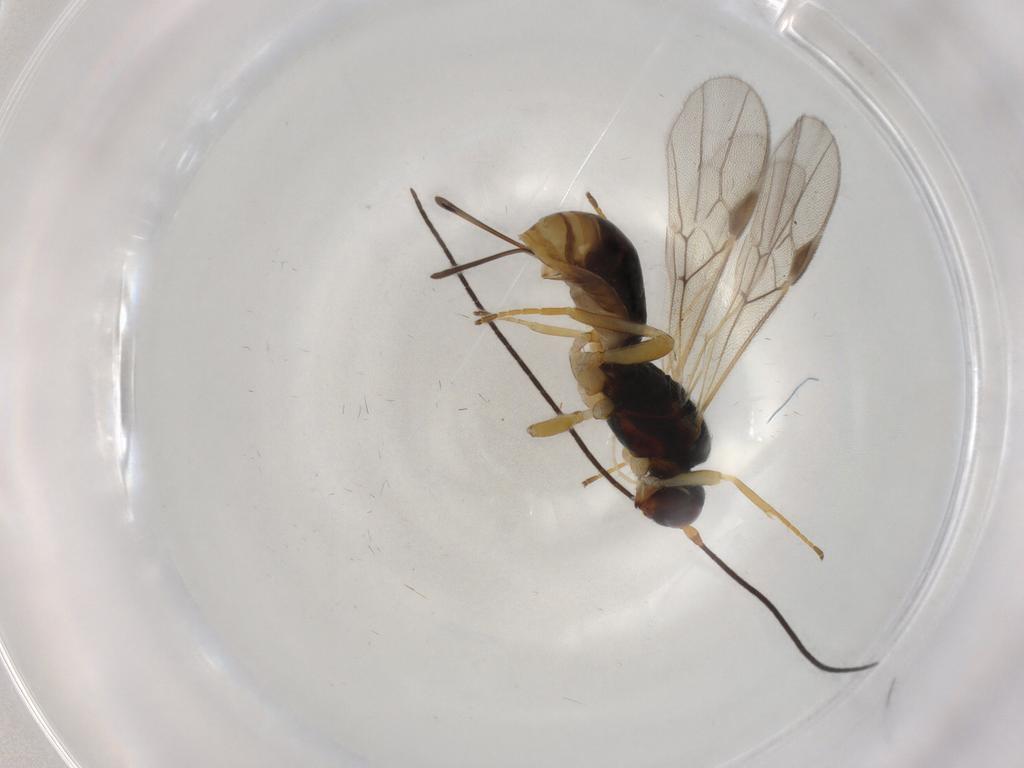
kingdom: Animalia
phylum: Arthropoda
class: Insecta
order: Hymenoptera
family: Braconidae
